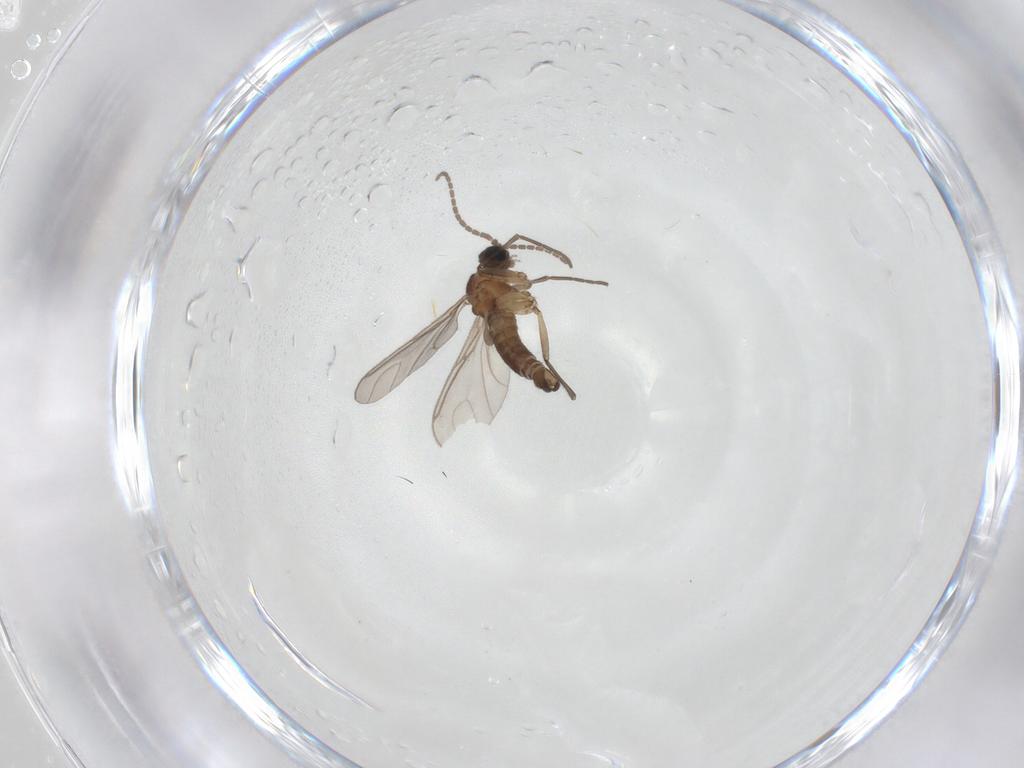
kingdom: Animalia
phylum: Arthropoda
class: Insecta
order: Diptera
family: Sciaridae
